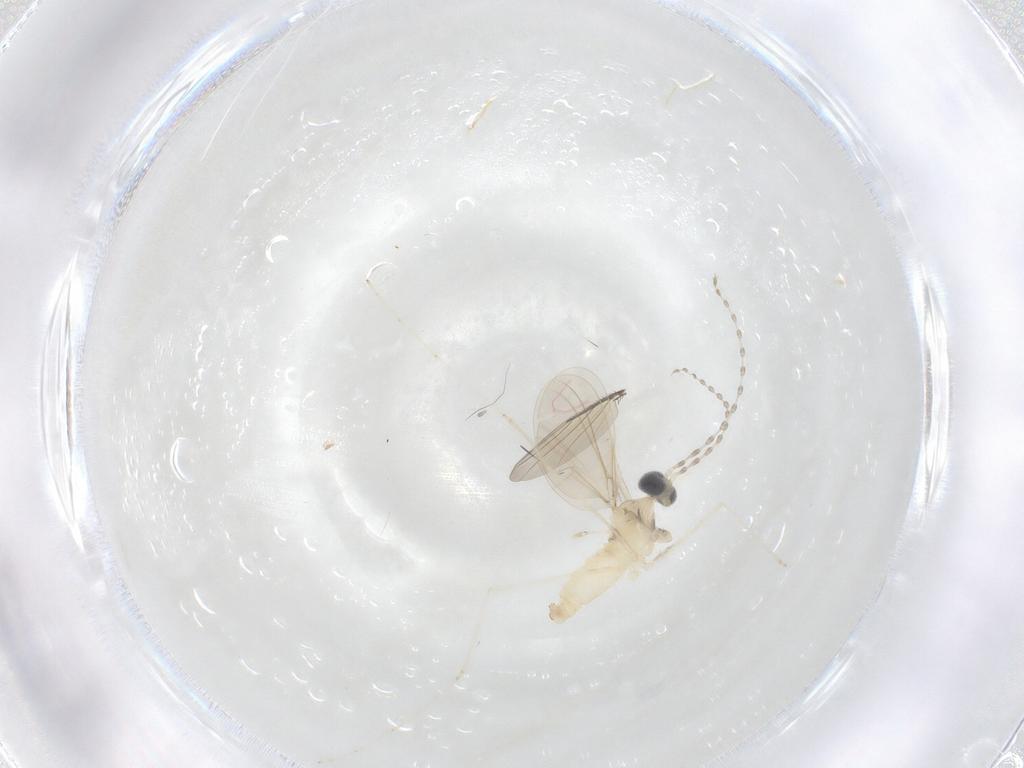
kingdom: Animalia
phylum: Arthropoda
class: Insecta
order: Diptera
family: Cecidomyiidae
